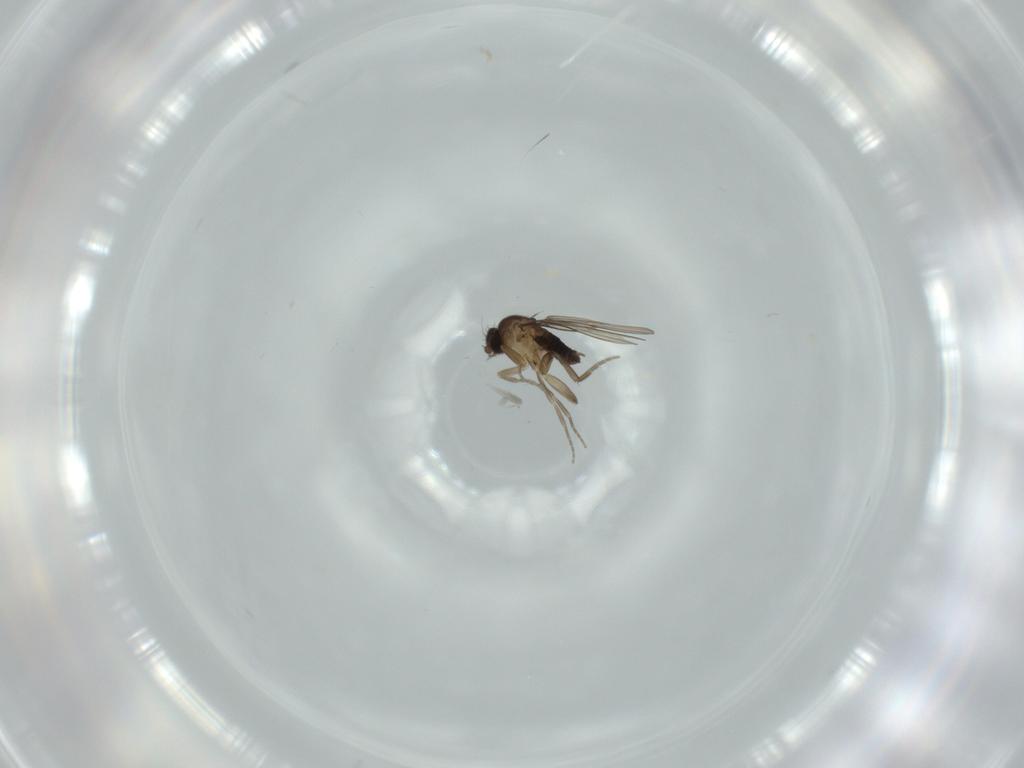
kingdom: Animalia
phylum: Arthropoda
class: Insecta
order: Diptera
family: Phoridae
